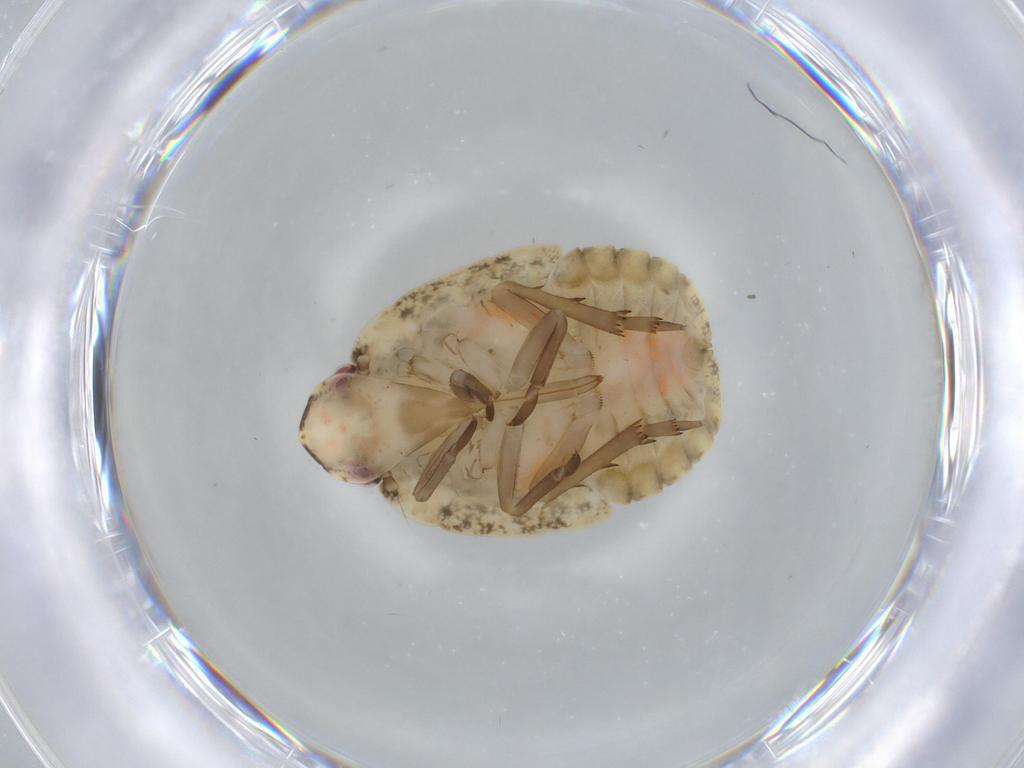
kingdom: Animalia
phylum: Arthropoda
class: Insecta
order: Hemiptera
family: Flatidae
